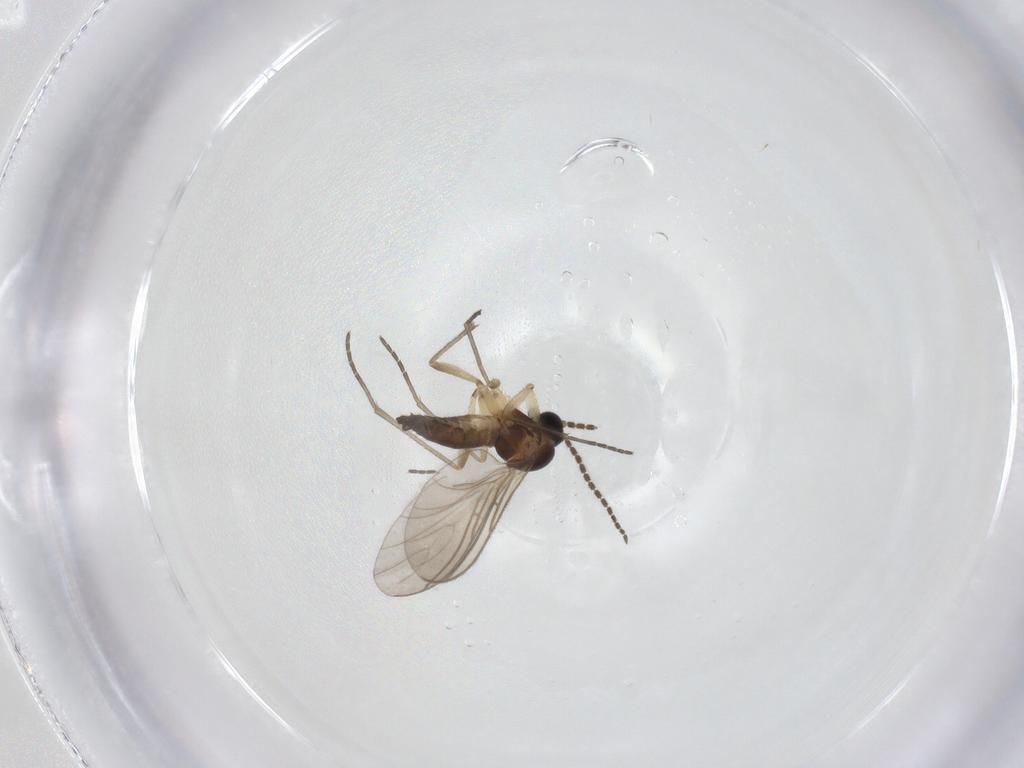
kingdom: Animalia
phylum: Arthropoda
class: Insecta
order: Diptera
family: Sciaridae
